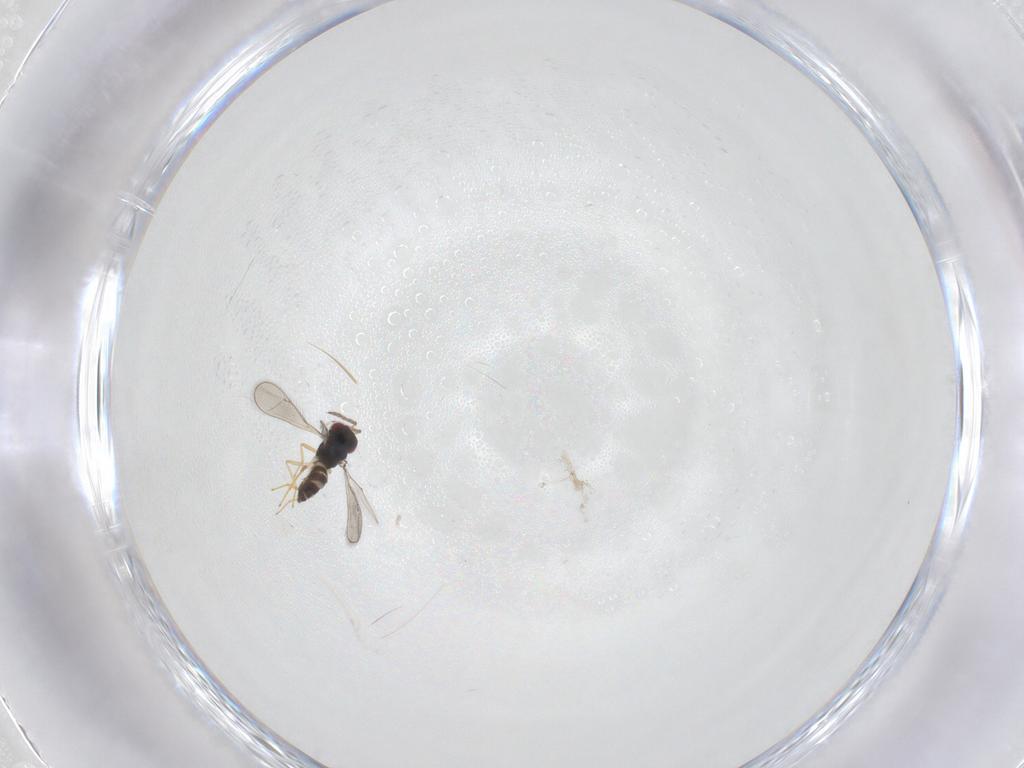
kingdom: Animalia
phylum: Arthropoda
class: Insecta
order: Hymenoptera
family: Eulophidae
